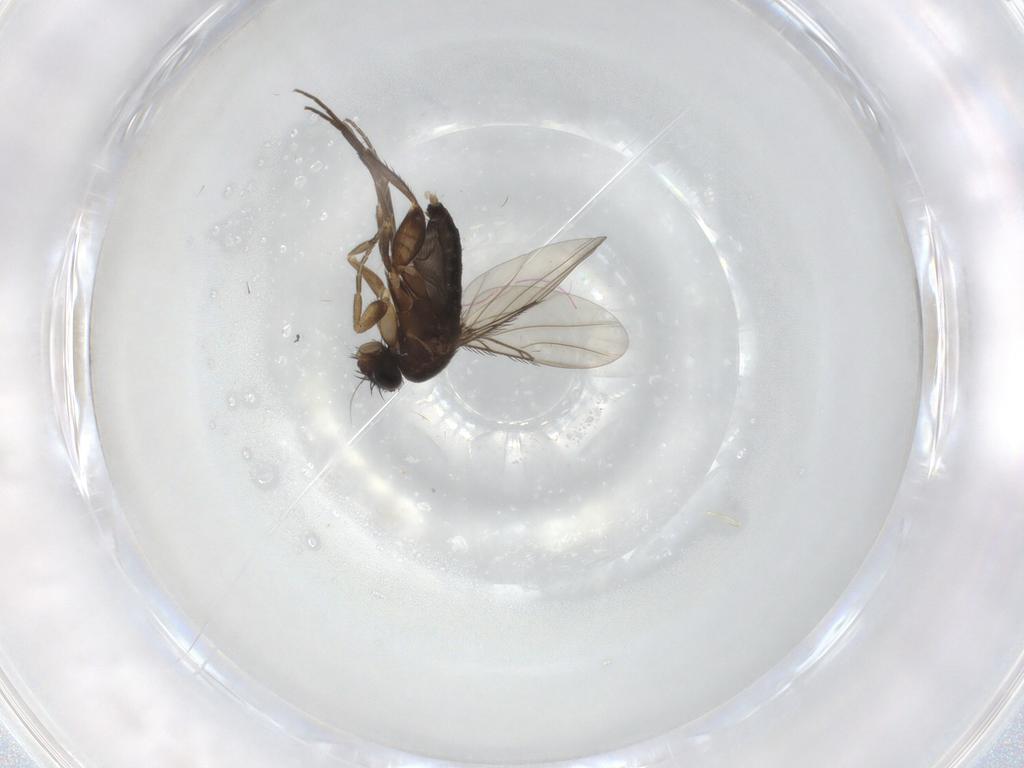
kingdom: Animalia
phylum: Arthropoda
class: Insecta
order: Diptera
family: Phoridae
